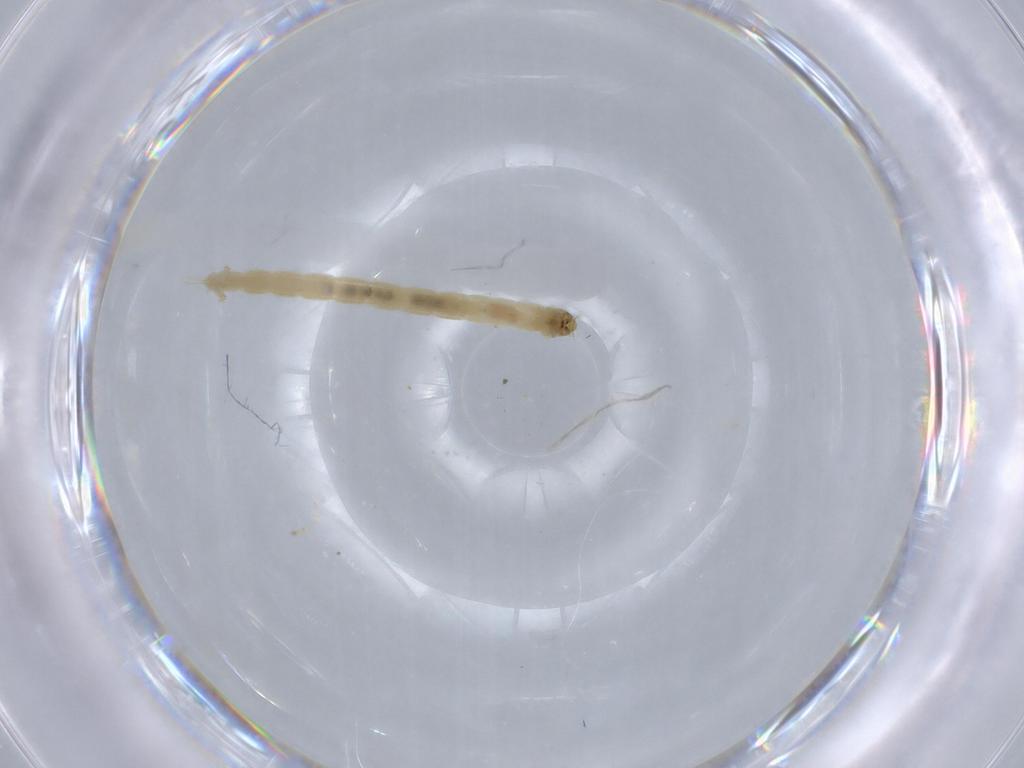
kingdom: Animalia
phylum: Arthropoda
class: Insecta
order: Diptera
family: Chironomidae
